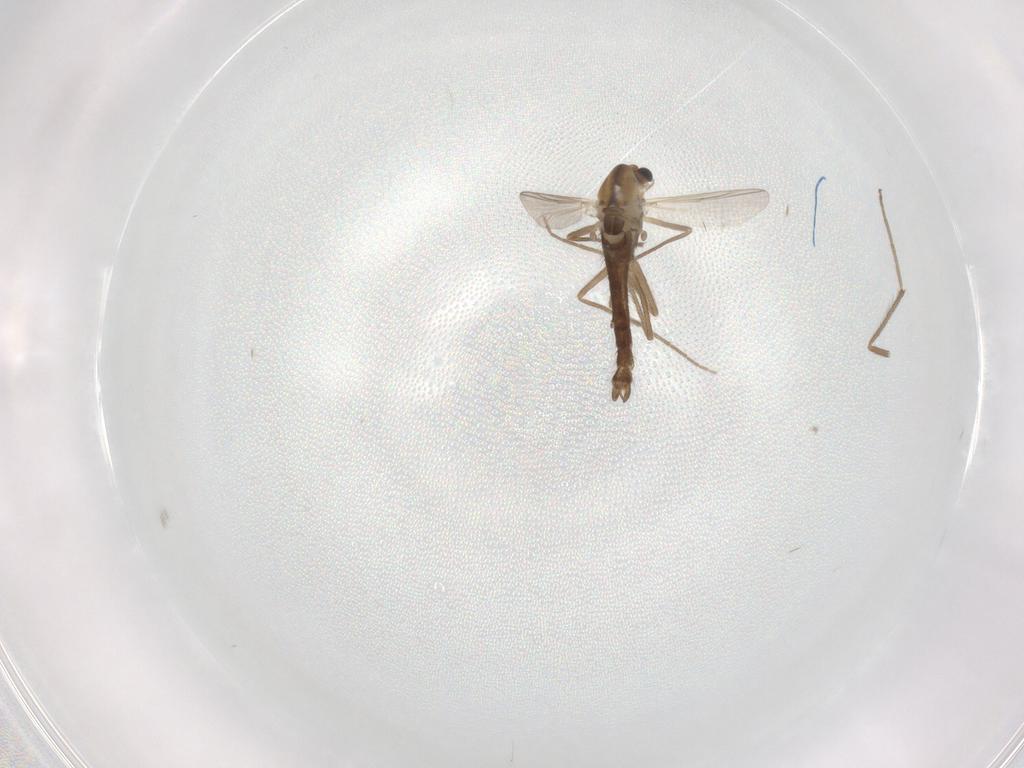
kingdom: Animalia
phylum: Arthropoda
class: Insecta
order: Diptera
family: Chironomidae
